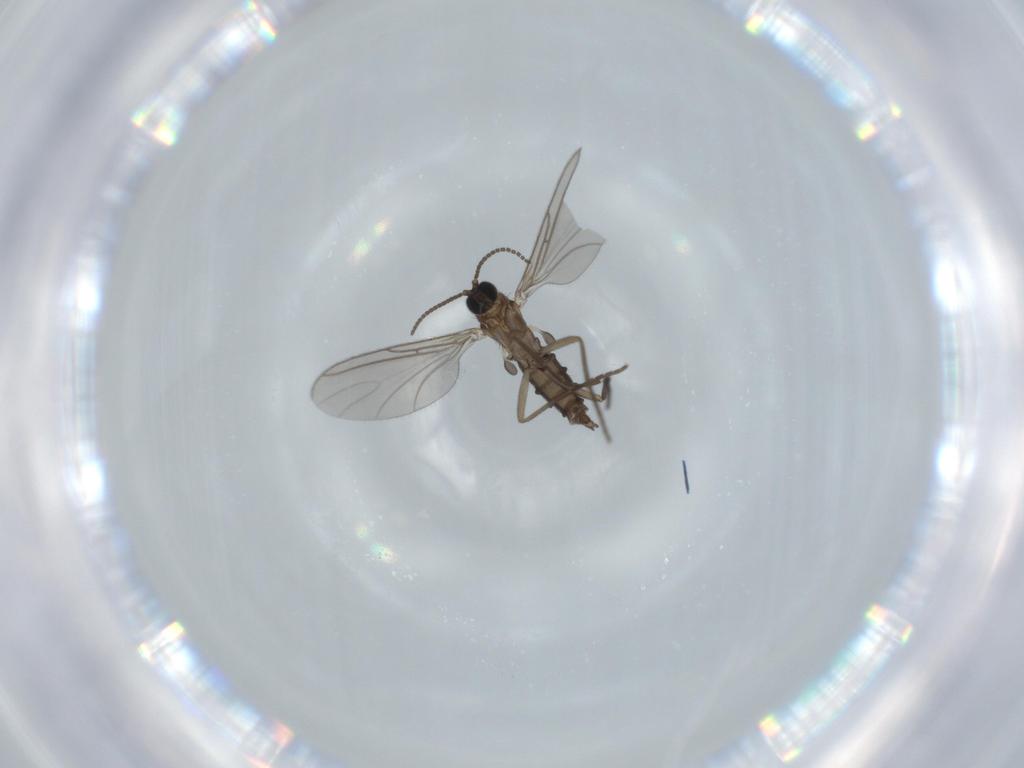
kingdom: Animalia
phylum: Arthropoda
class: Insecta
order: Diptera
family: Sciaridae
